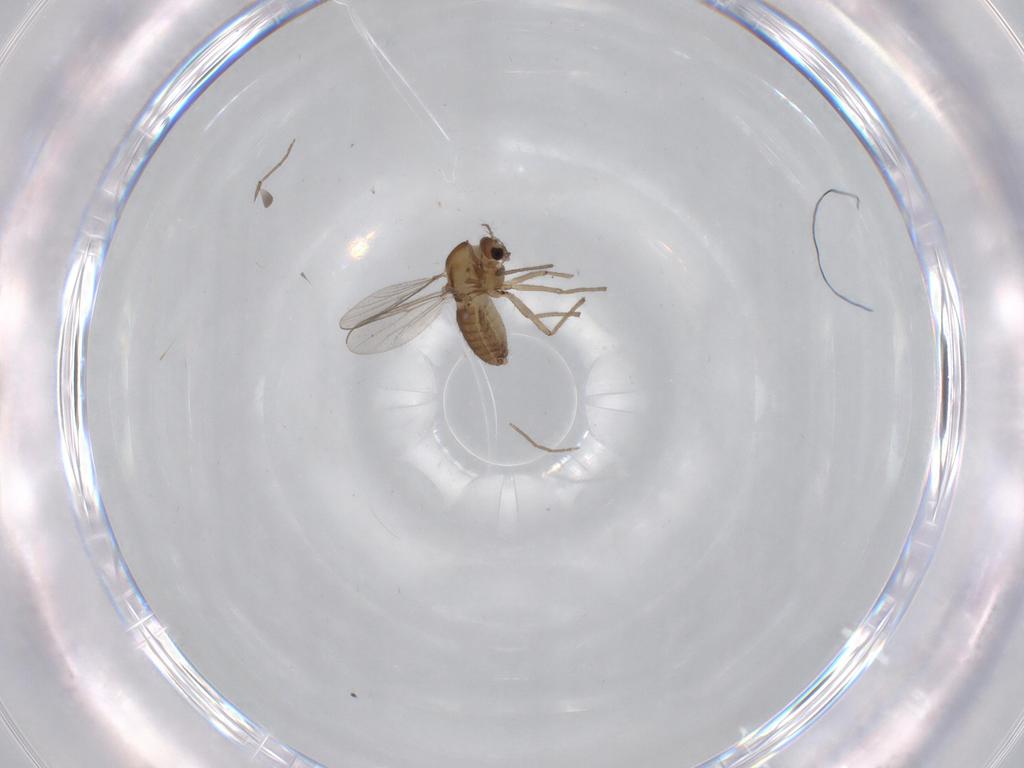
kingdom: Animalia
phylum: Arthropoda
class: Insecta
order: Diptera
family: Chironomidae
